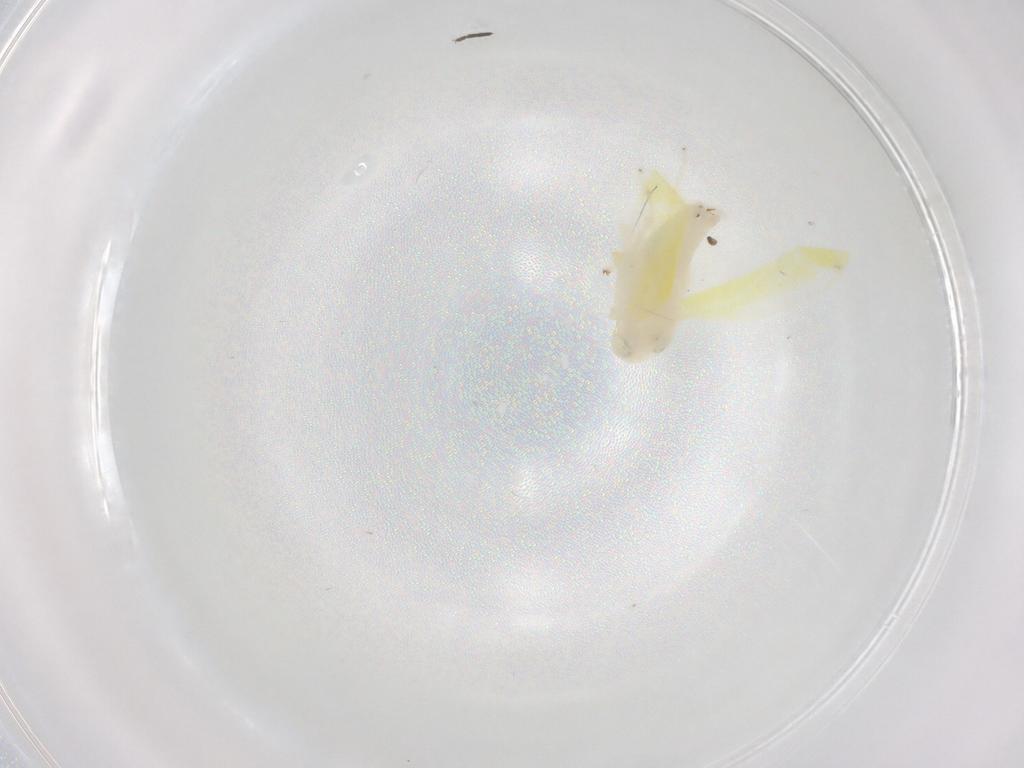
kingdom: Animalia
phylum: Arthropoda
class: Insecta
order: Hemiptera
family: Cicadellidae
